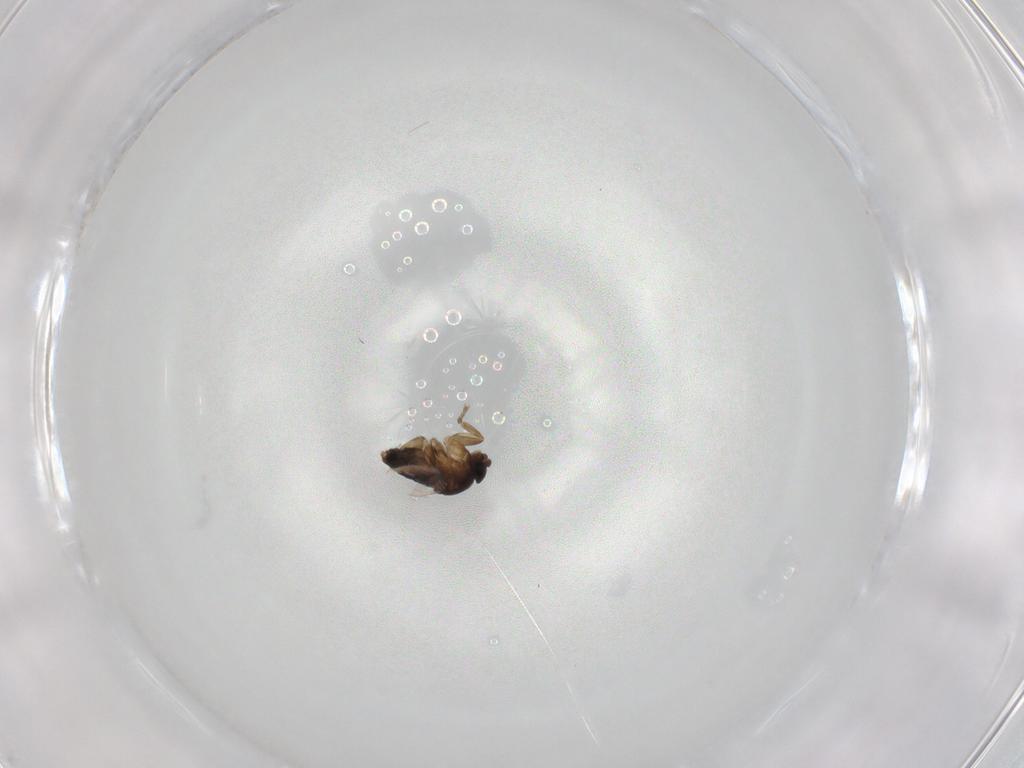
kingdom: Animalia
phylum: Arthropoda
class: Insecta
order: Diptera
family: Phoridae
